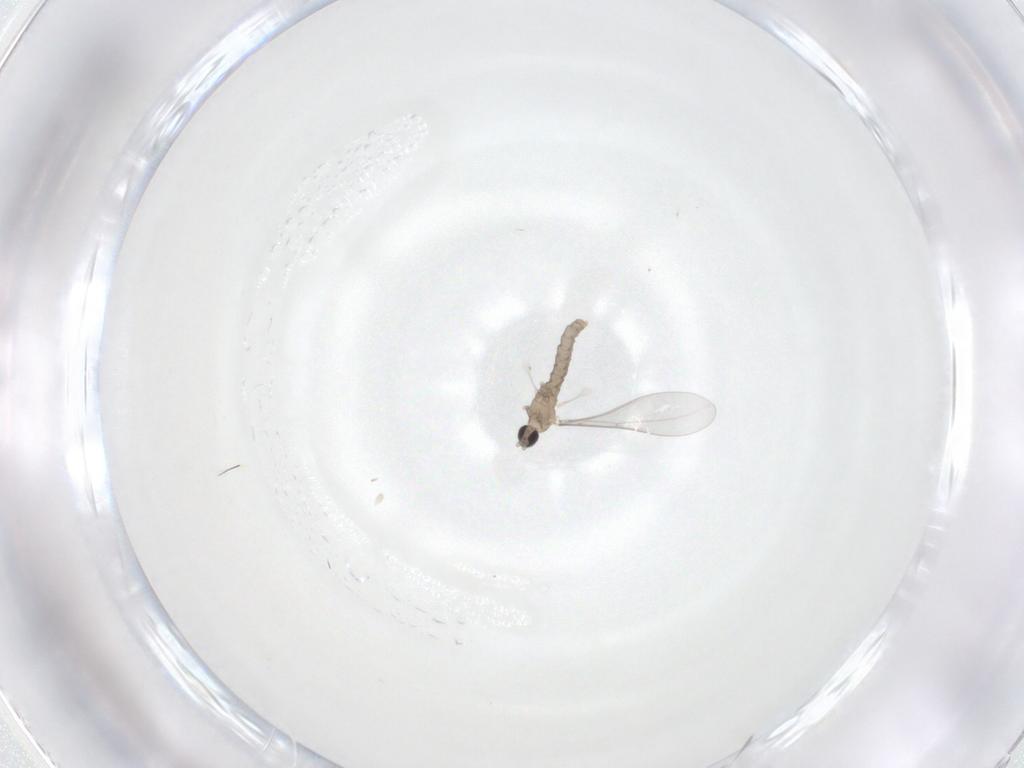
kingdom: Animalia
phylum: Arthropoda
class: Insecta
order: Diptera
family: Cecidomyiidae
